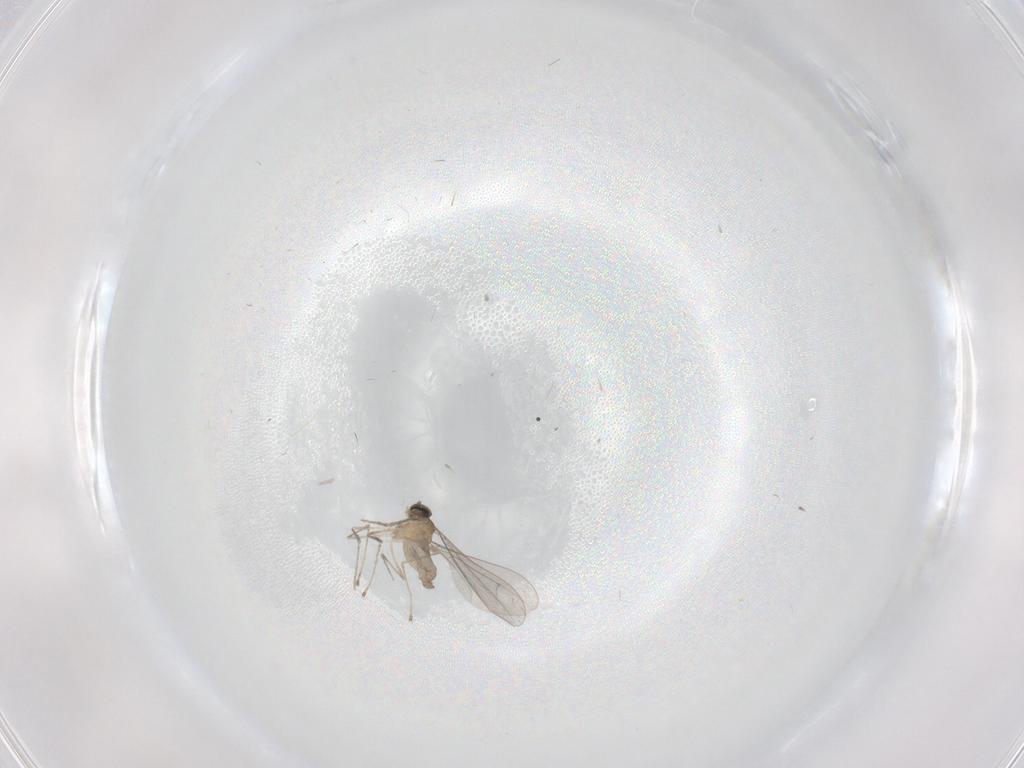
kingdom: Animalia
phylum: Arthropoda
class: Insecta
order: Diptera
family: Cecidomyiidae
